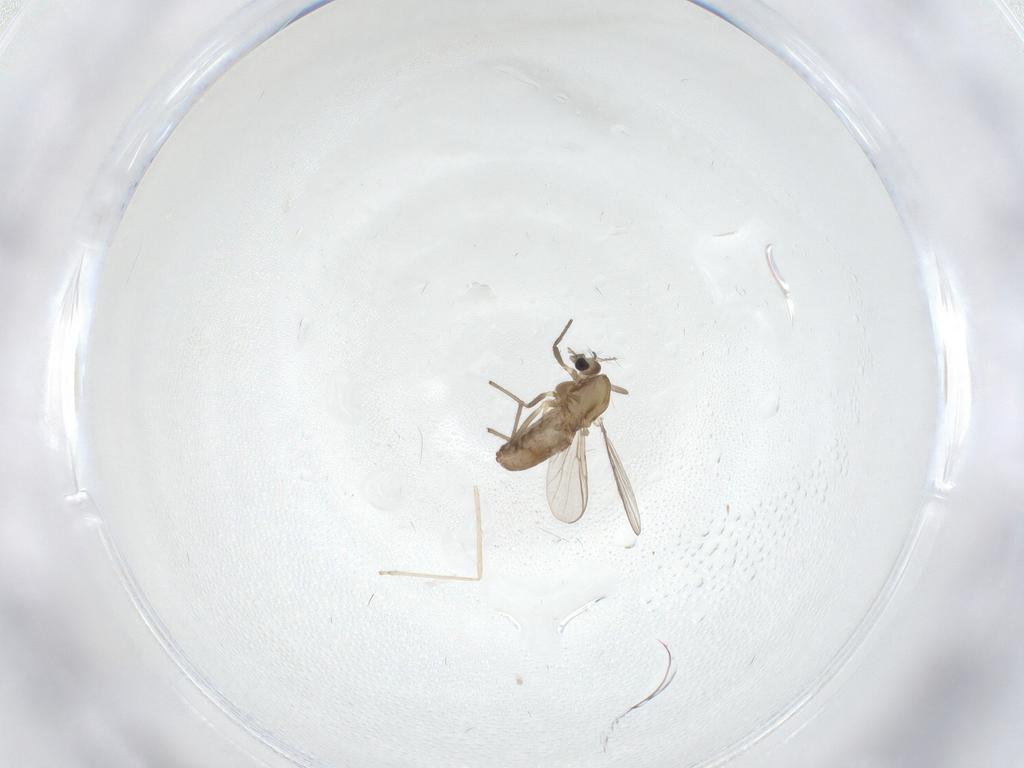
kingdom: Animalia
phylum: Arthropoda
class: Insecta
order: Diptera
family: Chironomidae
